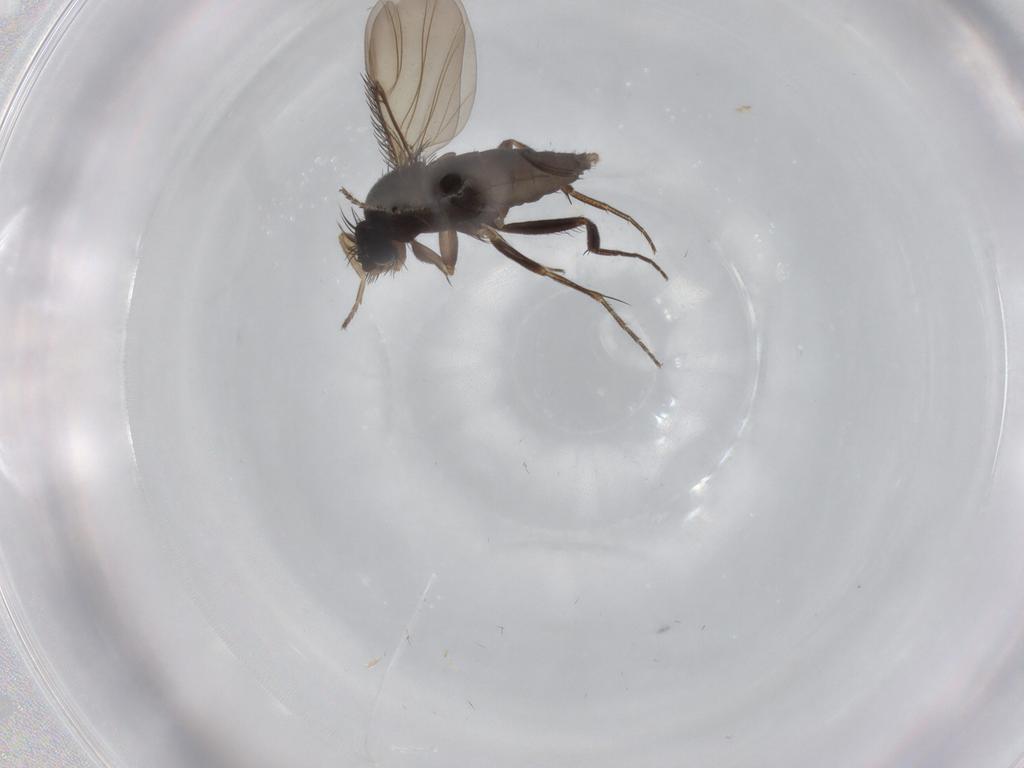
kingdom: Animalia
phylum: Arthropoda
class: Insecta
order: Diptera
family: Phoridae
